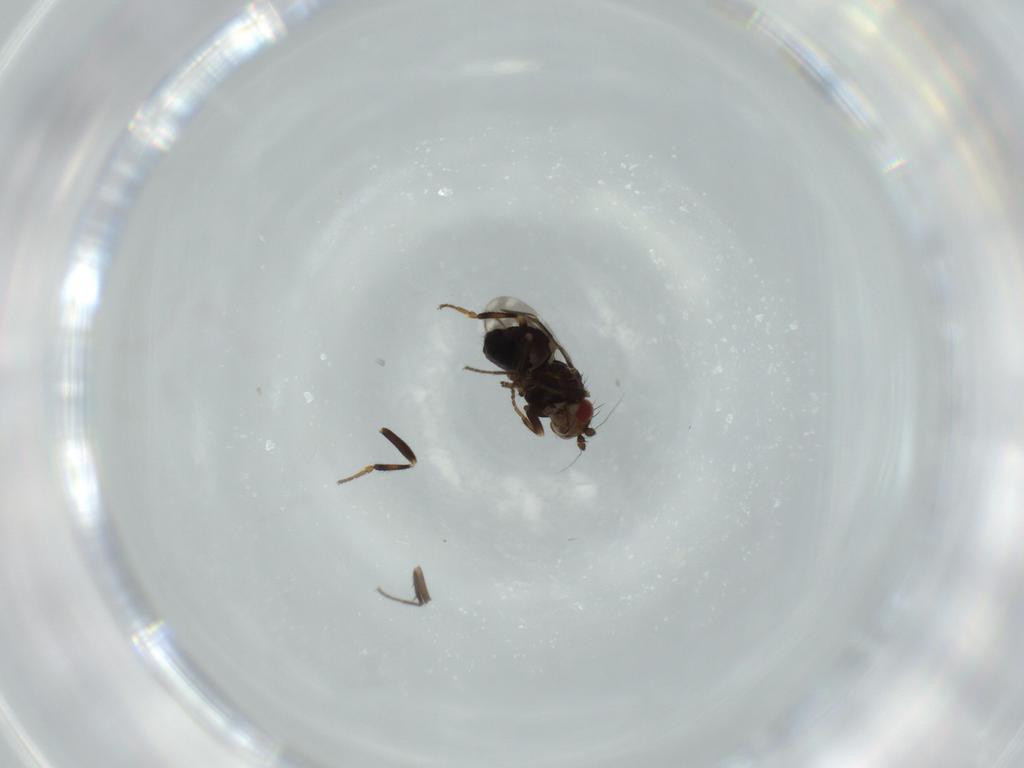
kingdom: Animalia
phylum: Arthropoda
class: Insecta
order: Diptera
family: Sphaeroceridae
